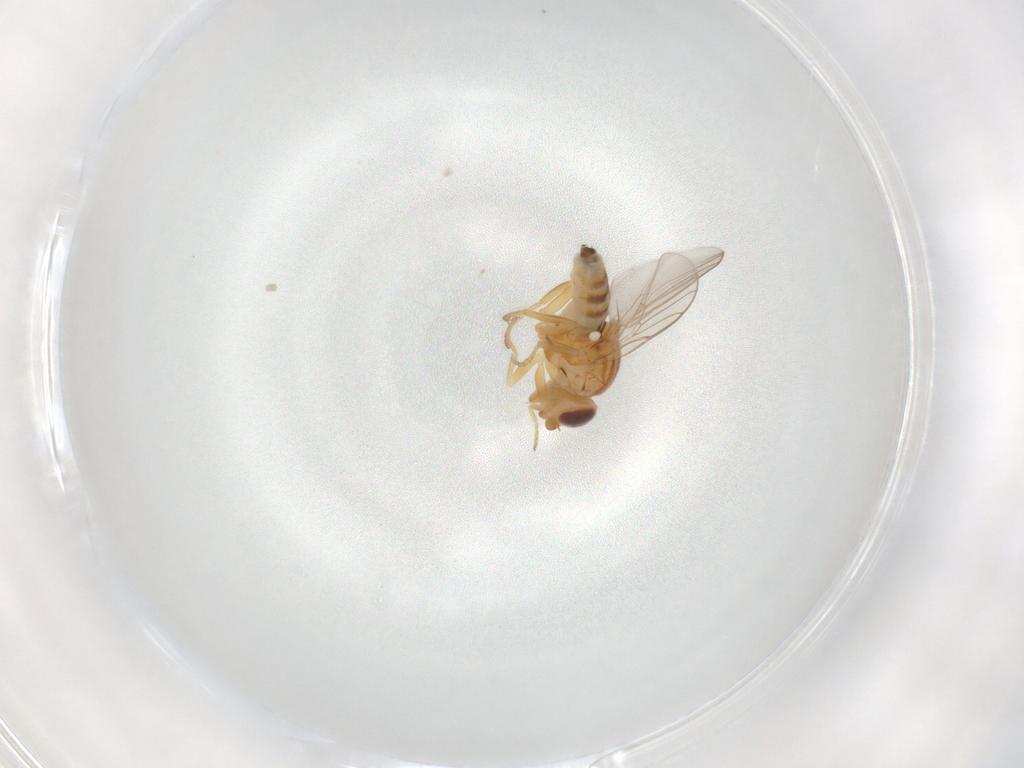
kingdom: Animalia
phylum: Arthropoda
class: Insecta
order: Diptera
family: Chloropidae
